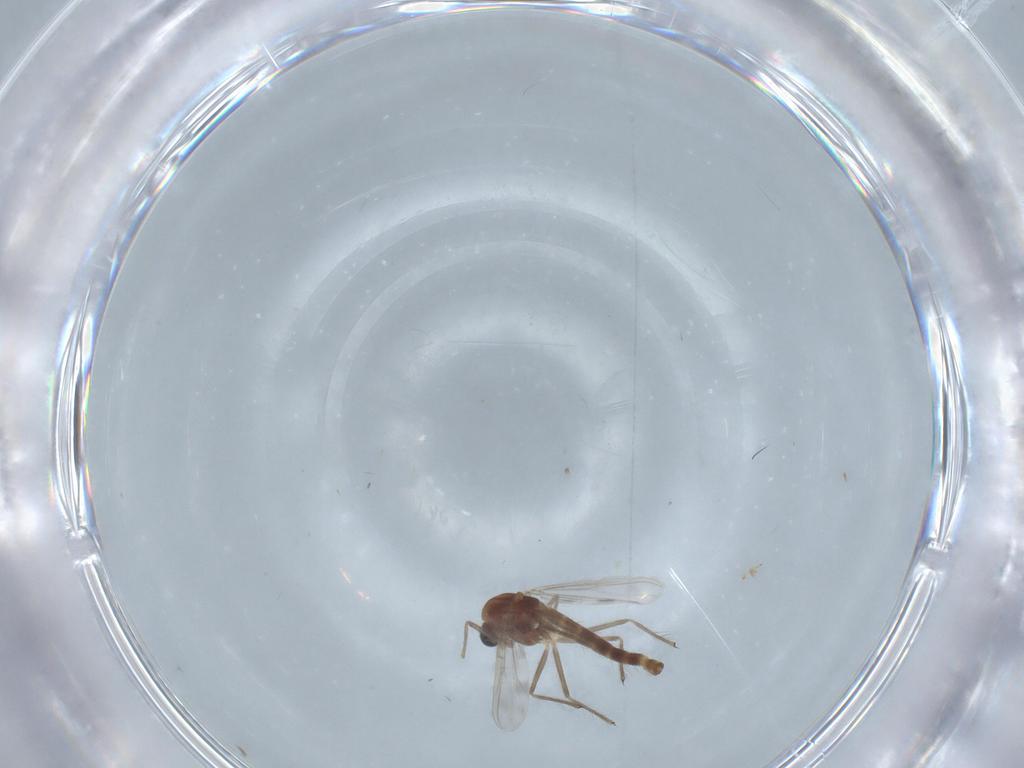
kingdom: Animalia
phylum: Arthropoda
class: Insecta
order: Diptera
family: Chironomidae
